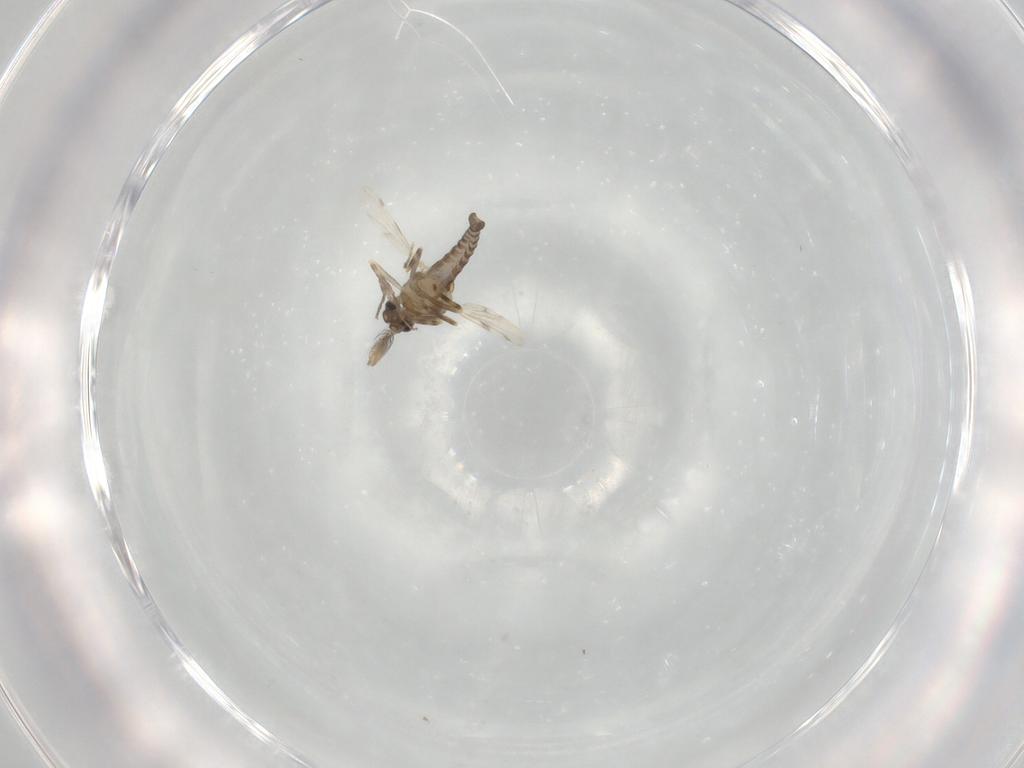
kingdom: Animalia
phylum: Arthropoda
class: Insecta
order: Diptera
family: Ceratopogonidae
